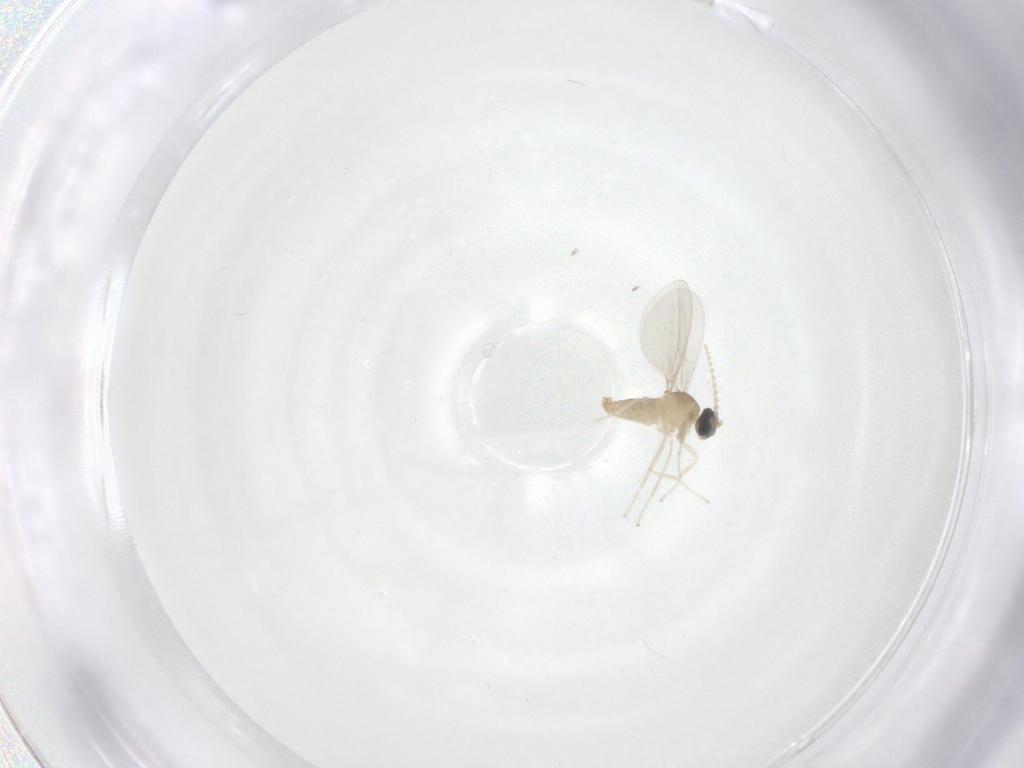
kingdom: Animalia
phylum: Arthropoda
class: Insecta
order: Diptera
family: Cecidomyiidae
